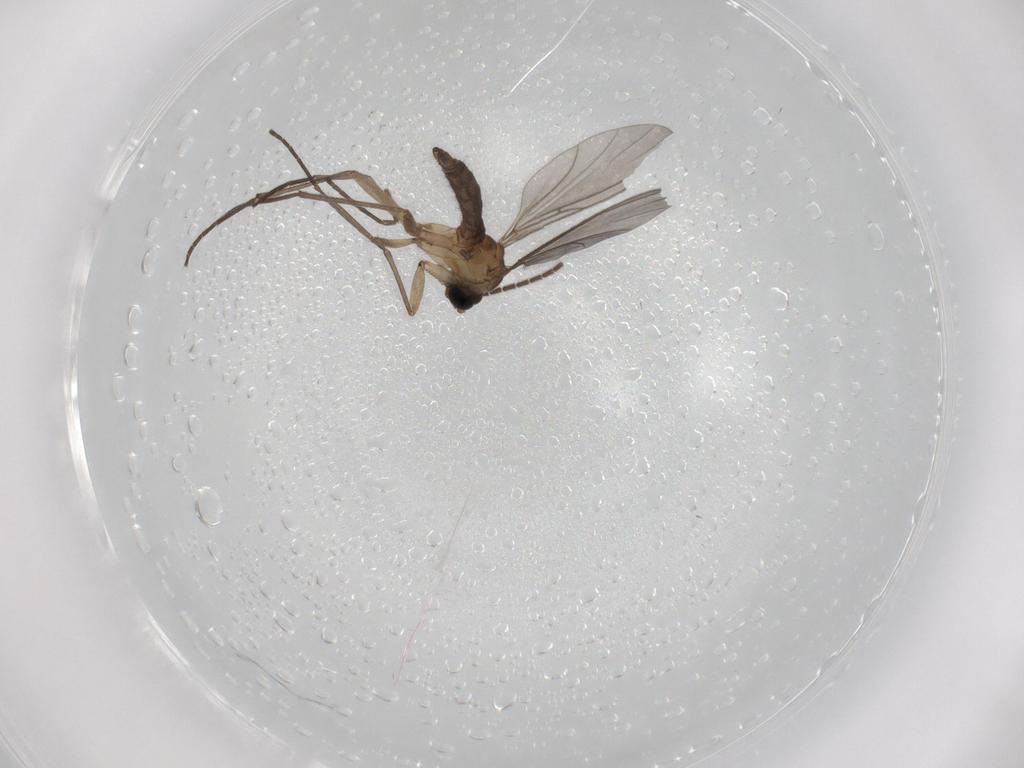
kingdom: Animalia
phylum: Arthropoda
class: Insecta
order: Diptera
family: Sciaridae
